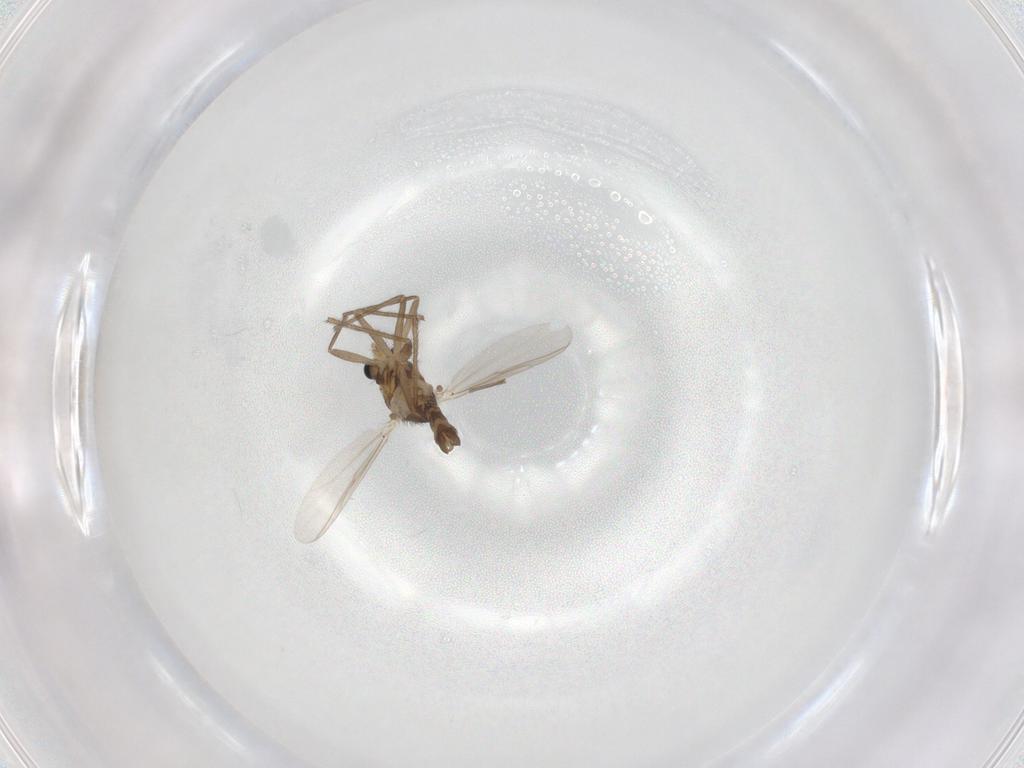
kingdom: Animalia
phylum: Arthropoda
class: Insecta
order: Diptera
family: Chironomidae
